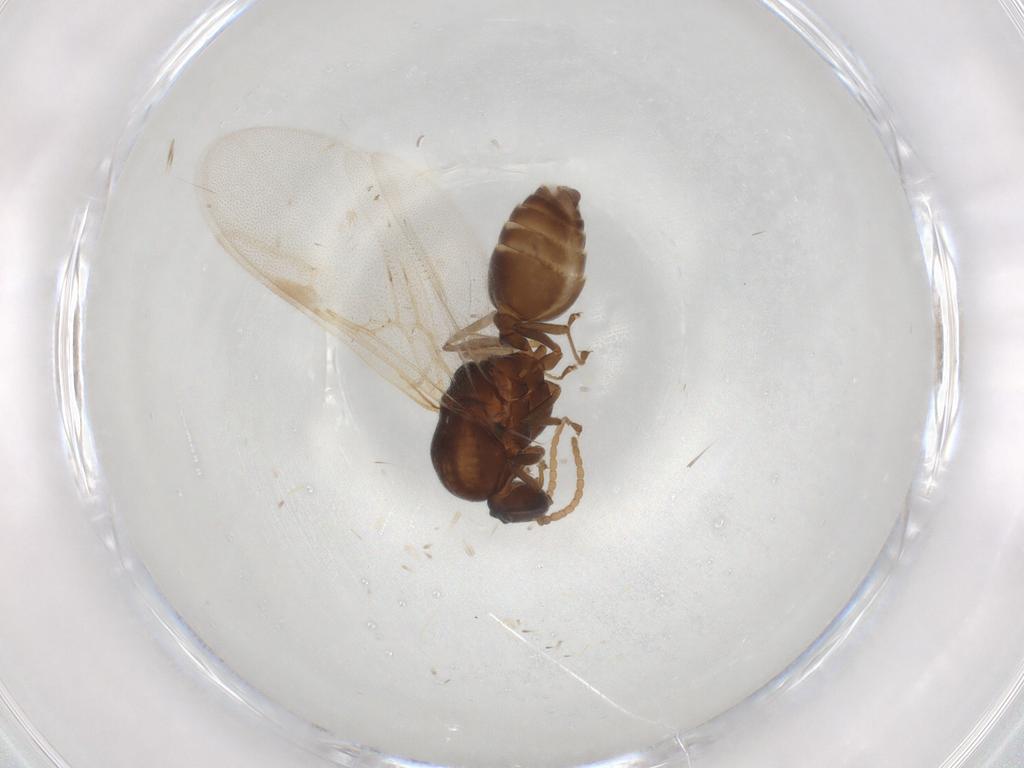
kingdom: Animalia
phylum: Arthropoda
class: Insecta
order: Hymenoptera
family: Formicidae
